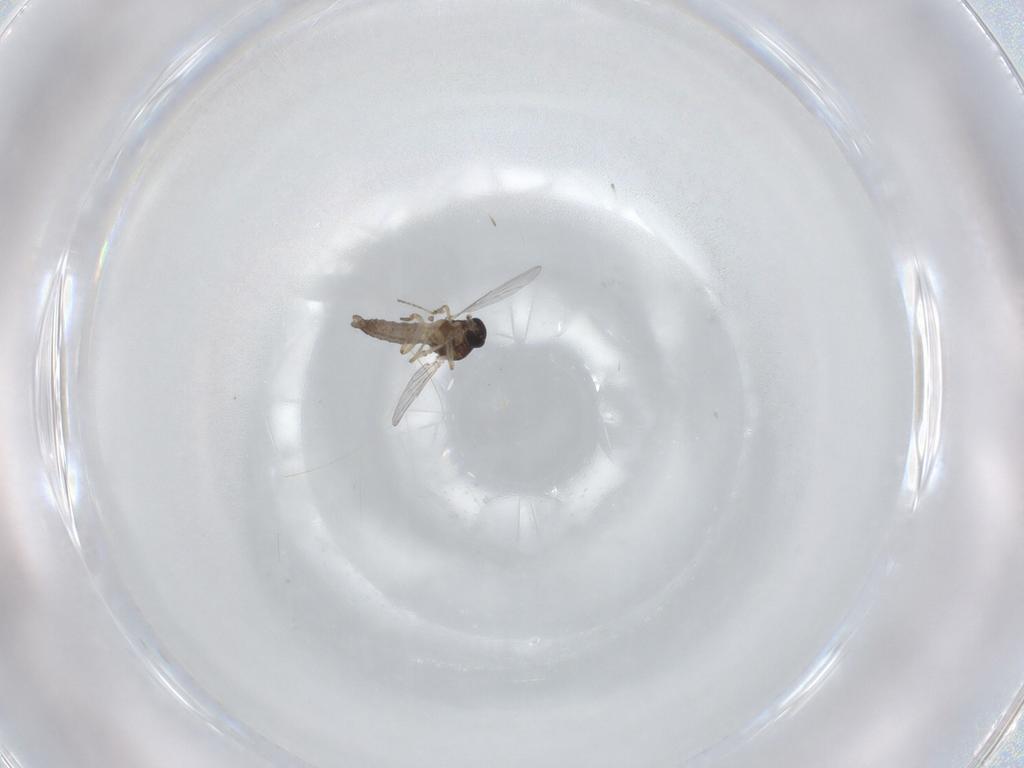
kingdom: Animalia
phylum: Arthropoda
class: Insecta
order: Diptera
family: Ceratopogonidae
